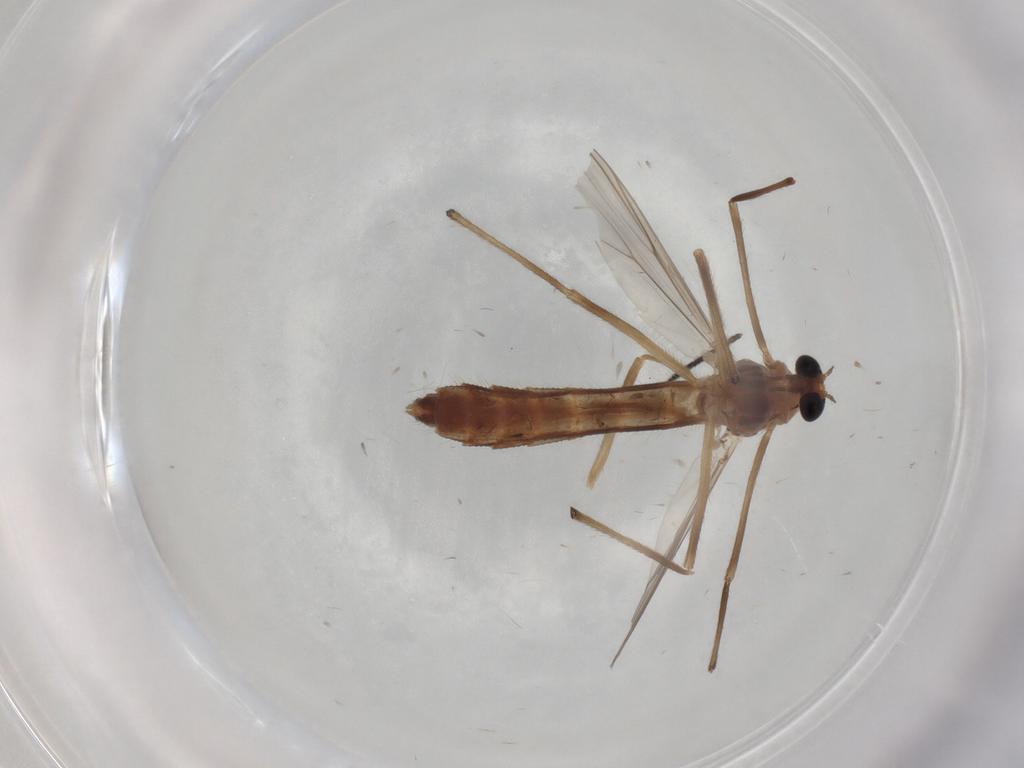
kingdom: Animalia
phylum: Arthropoda
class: Insecta
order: Diptera
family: Chironomidae
